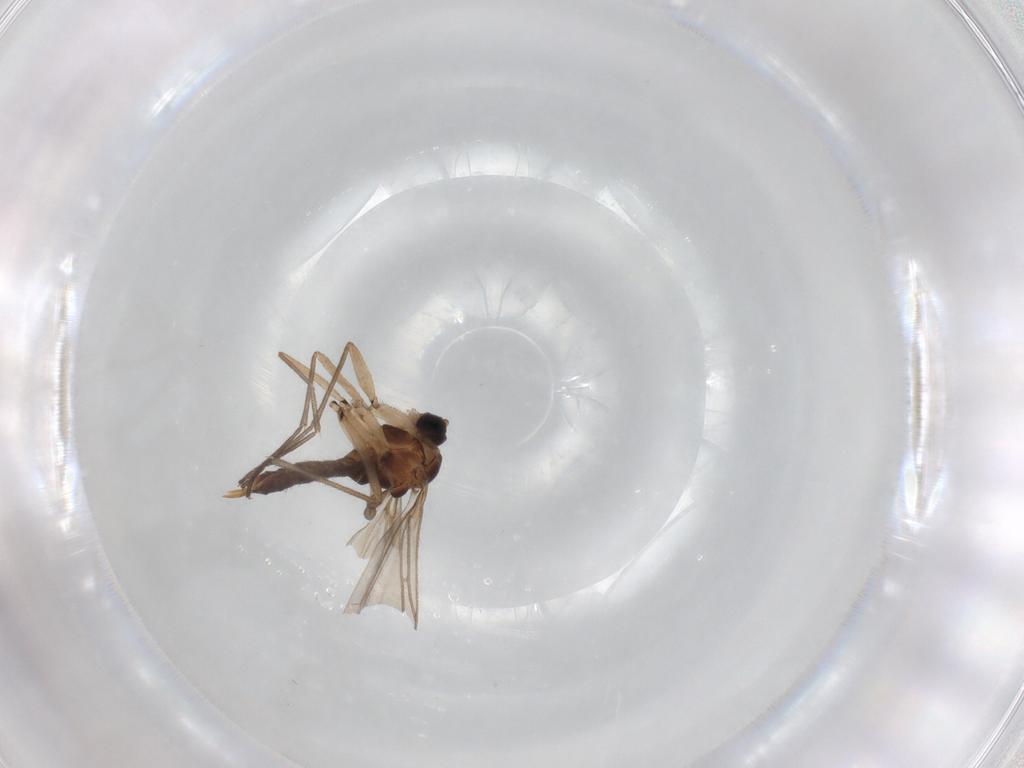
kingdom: Animalia
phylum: Arthropoda
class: Insecta
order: Diptera
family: Sciaridae
